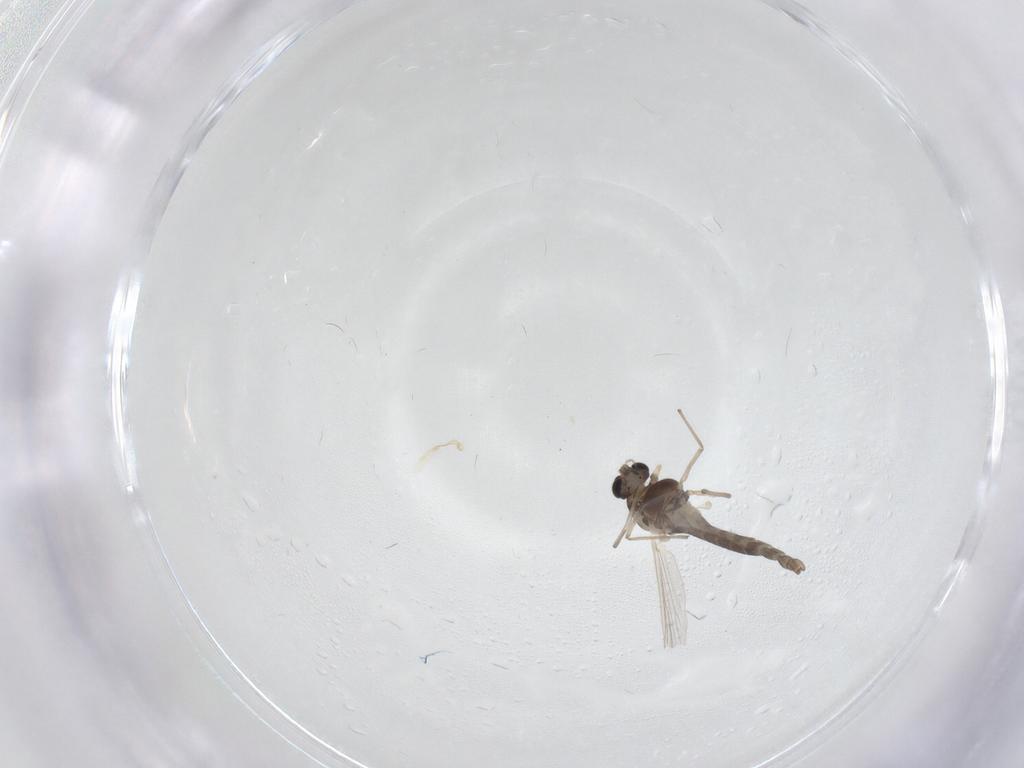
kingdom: Animalia
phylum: Arthropoda
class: Insecta
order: Diptera
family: Chironomidae
